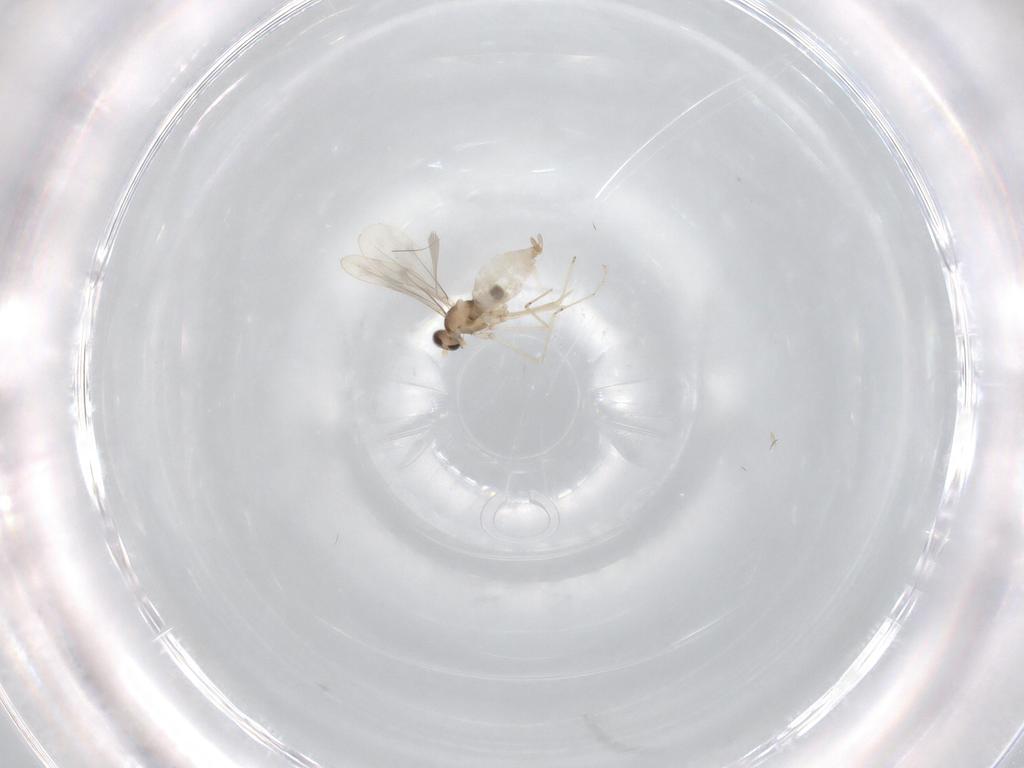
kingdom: Animalia
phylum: Arthropoda
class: Insecta
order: Diptera
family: Cecidomyiidae
